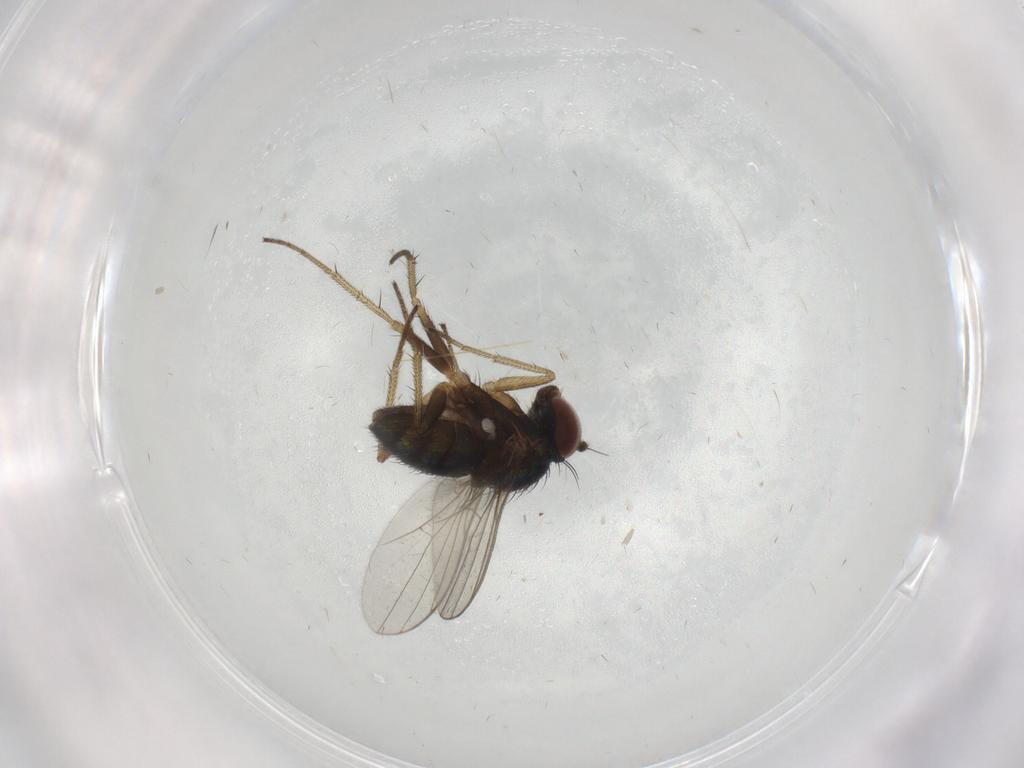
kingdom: Animalia
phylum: Arthropoda
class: Insecta
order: Diptera
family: Dolichopodidae
